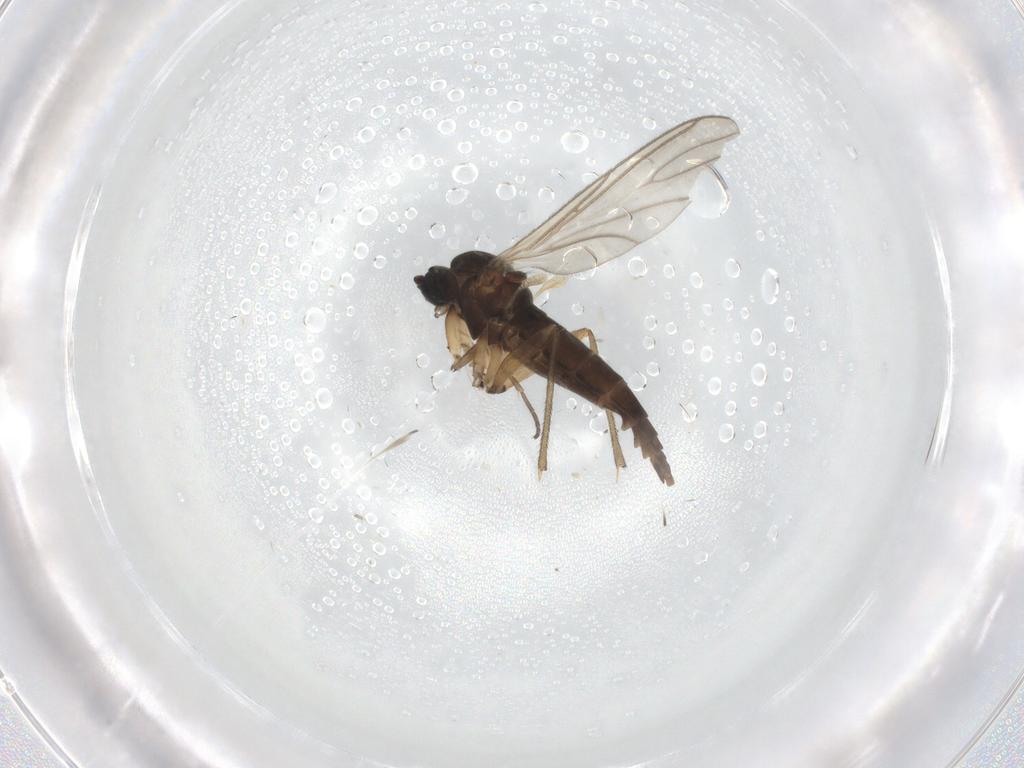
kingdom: Animalia
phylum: Arthropoda
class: Insecta
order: Diptera
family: Sciaridae
